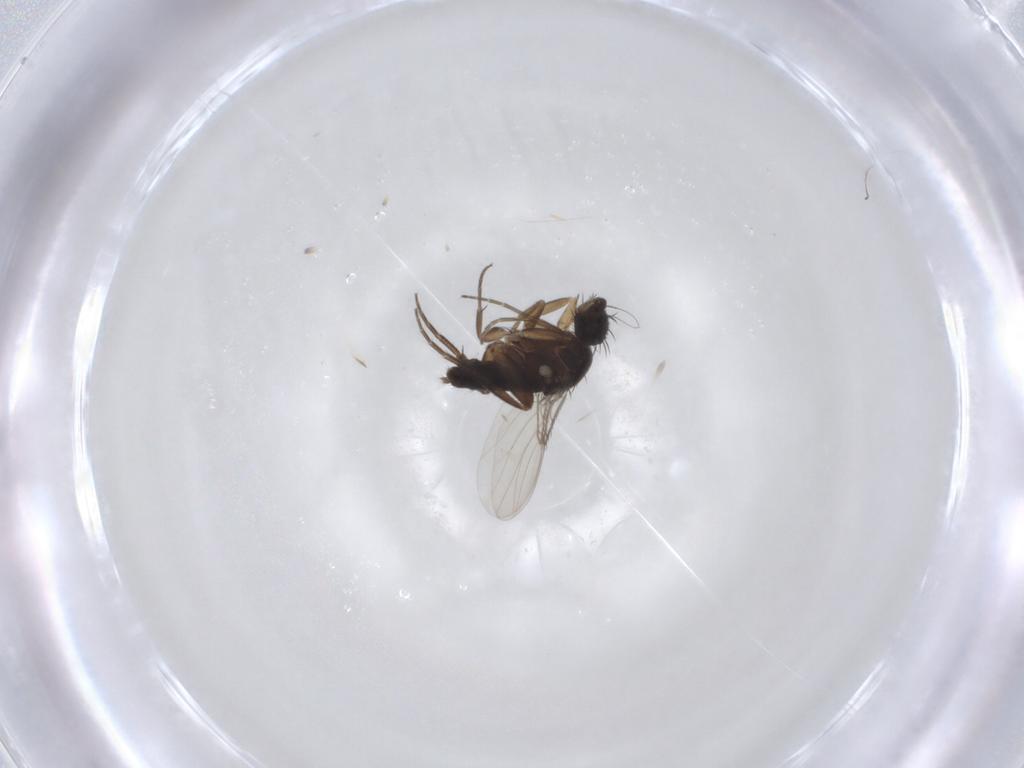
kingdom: Animalia
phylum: Arthropoda
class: Insecta
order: Diptera
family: Phoridae
